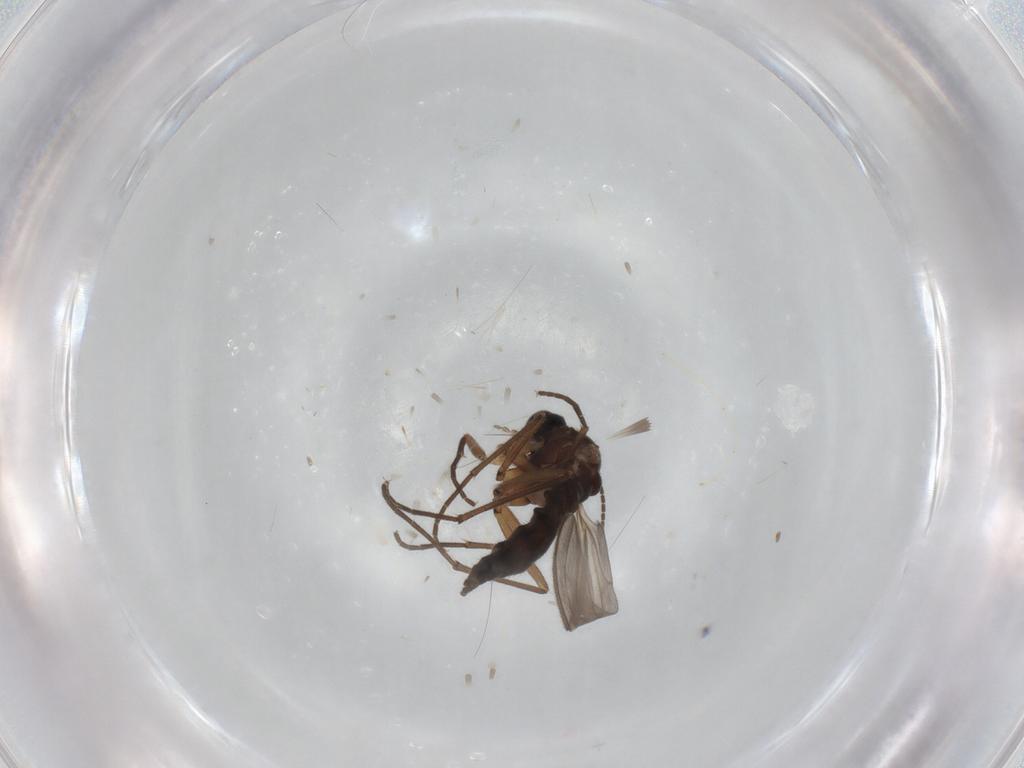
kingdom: Animalia
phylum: Arthropoda
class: Insecta
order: Diptera
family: Sciaridae
